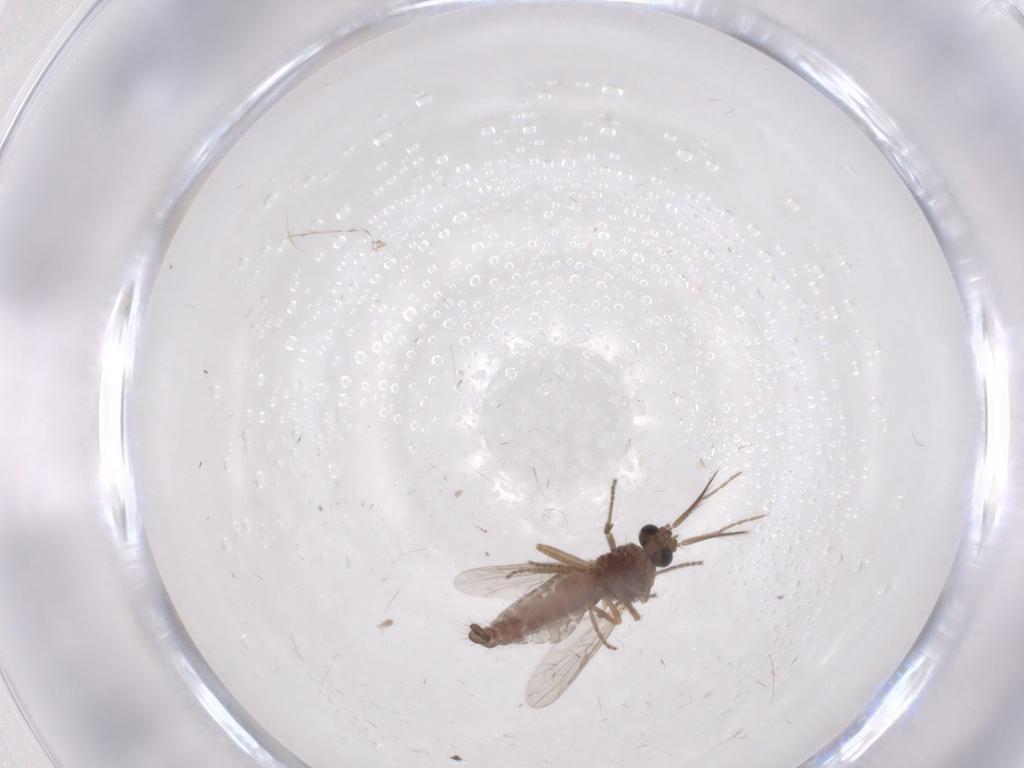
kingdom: Animalia
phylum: Arthropoda
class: Insecta
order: Diptera
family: Ceratopogonidae
